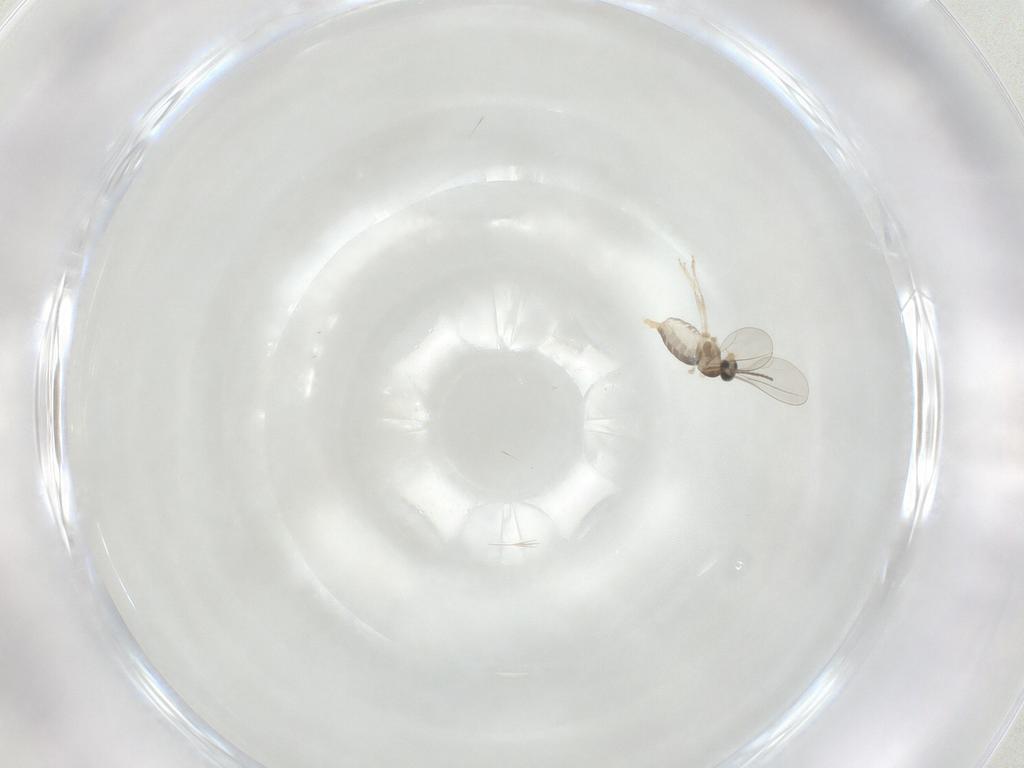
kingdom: Animalia
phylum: Arthropoda
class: Insecta
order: Diptera
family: Cecidomyiidae
